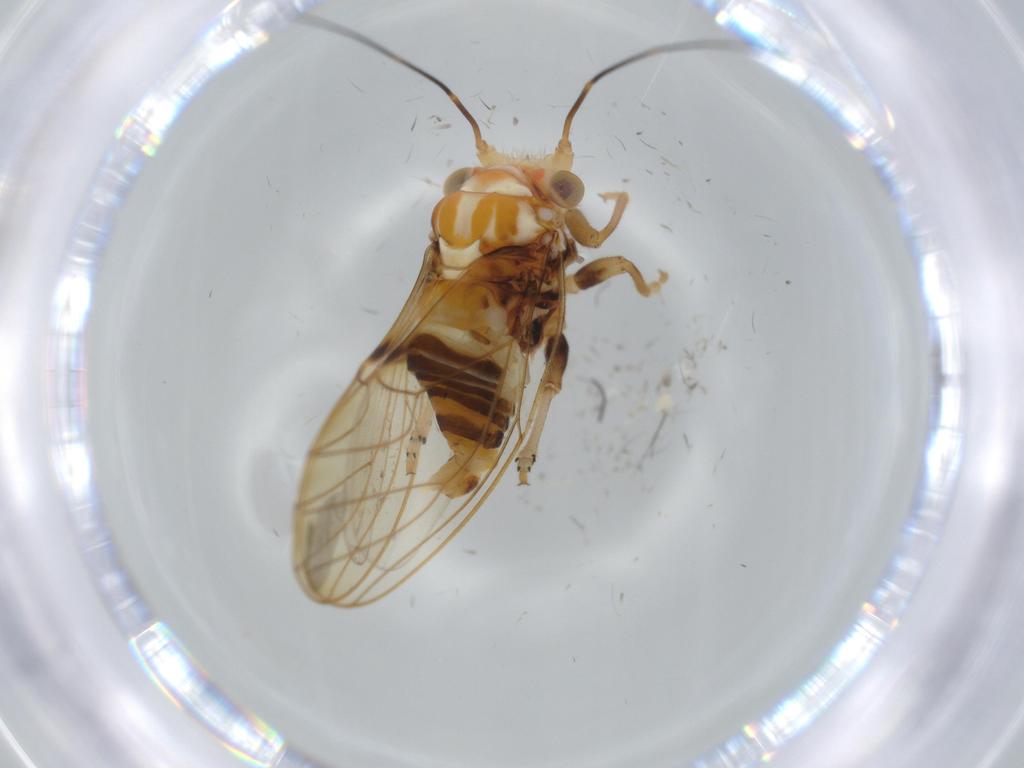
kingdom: Animalia
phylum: Arthropoda
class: Insecta
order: Hemiptera
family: Psyllidae
